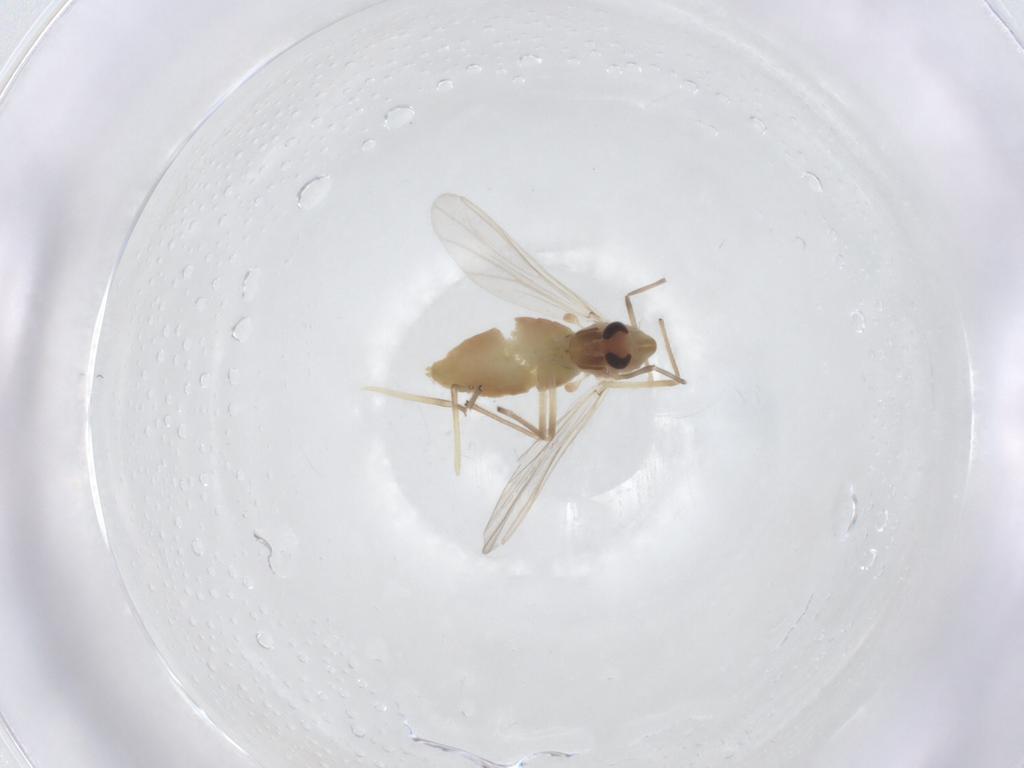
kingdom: Animalia
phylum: Arthropoda
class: Insecta
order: Diptera
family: Chironomidae
